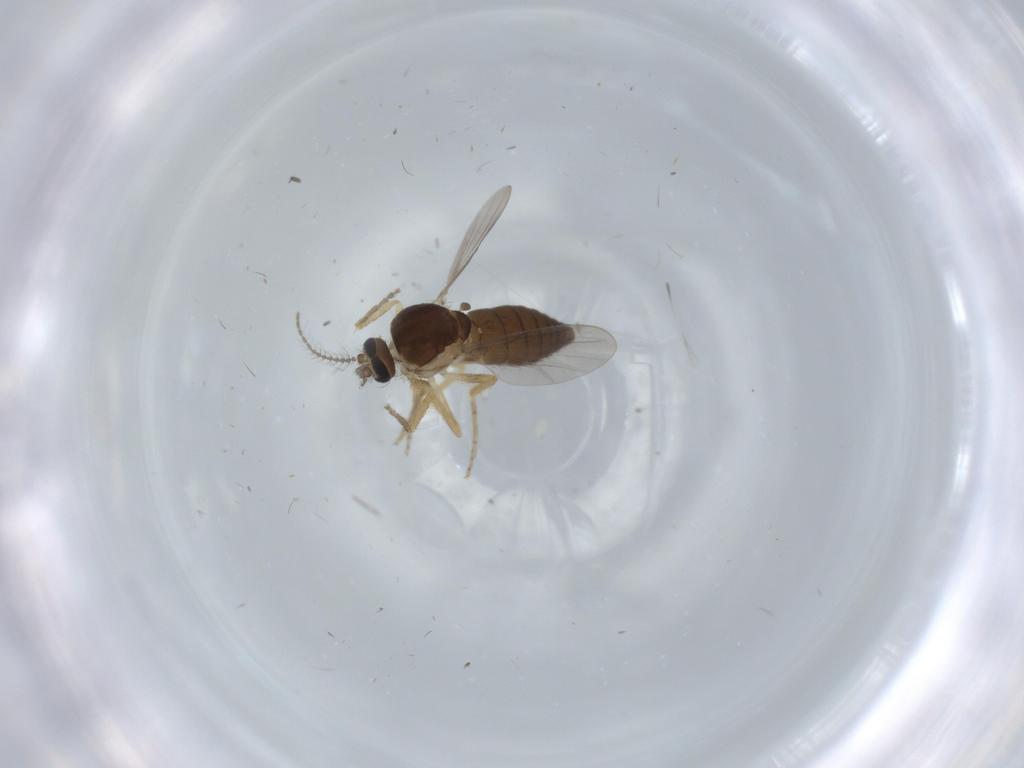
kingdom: Animalia
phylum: Arthropoda
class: Insecta
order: Diptera
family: Sciaridae
